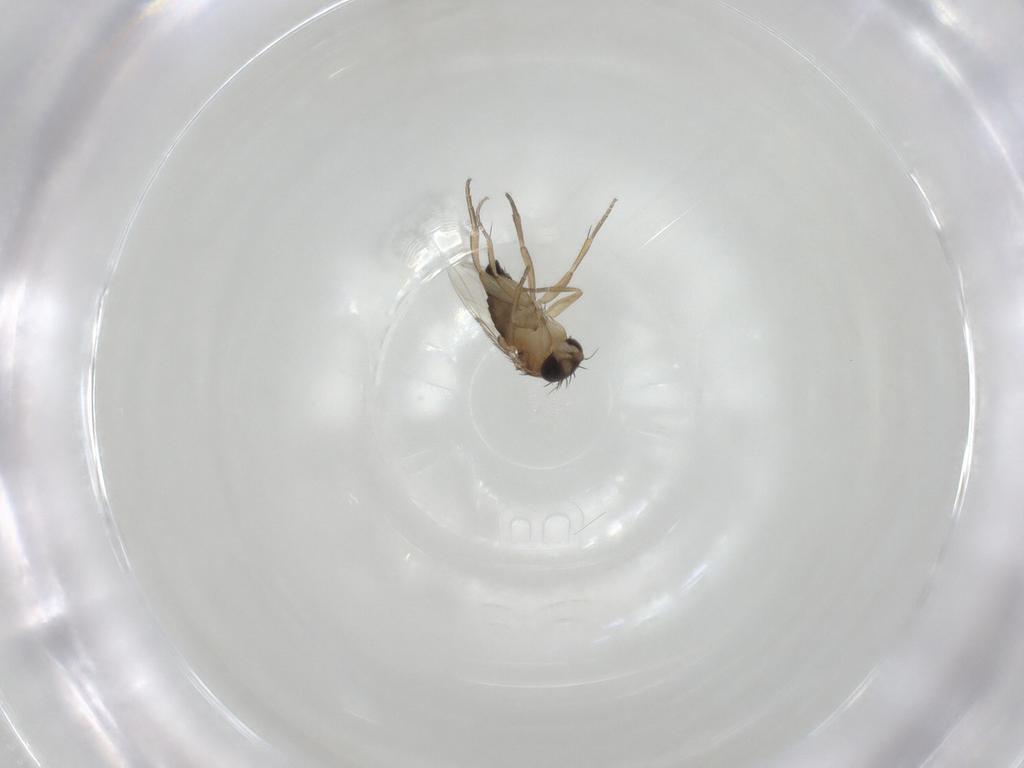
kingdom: Animalia
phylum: Arthropoda
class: Insecta
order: Diptera
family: Phoridae
